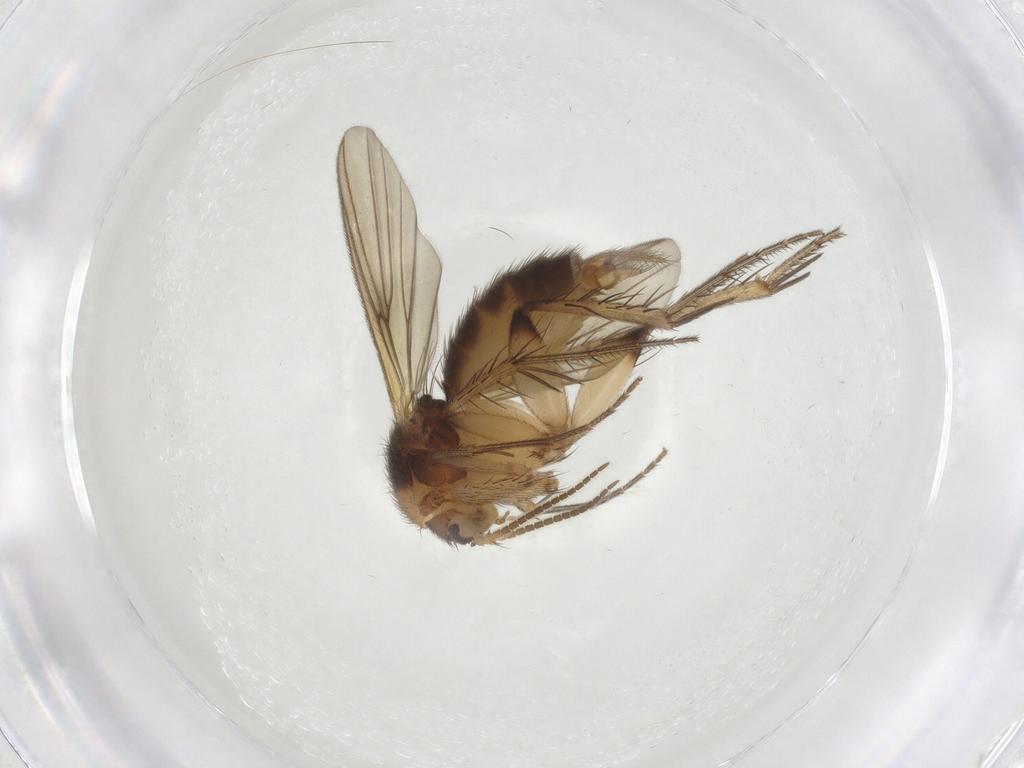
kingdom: Animalia
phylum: Arthropoda
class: Insecta
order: Diptera
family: Mycetophilidae
